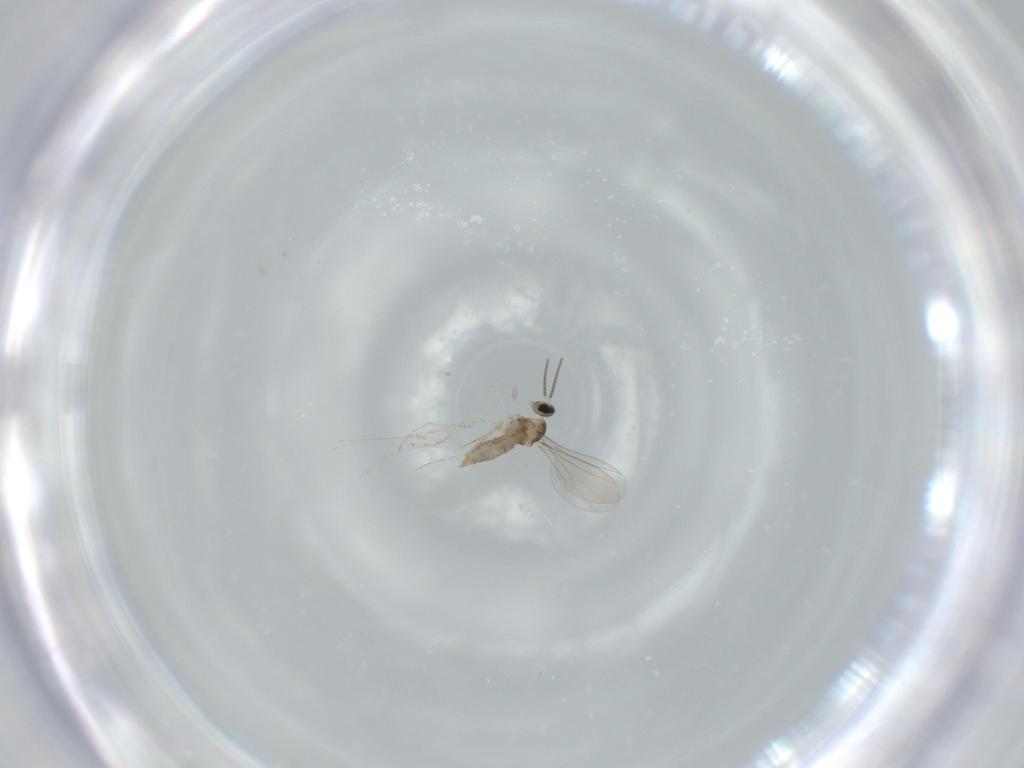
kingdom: Animalia
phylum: Arthropoda
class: Insecta
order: Diptera
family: Cecidomyiidae
